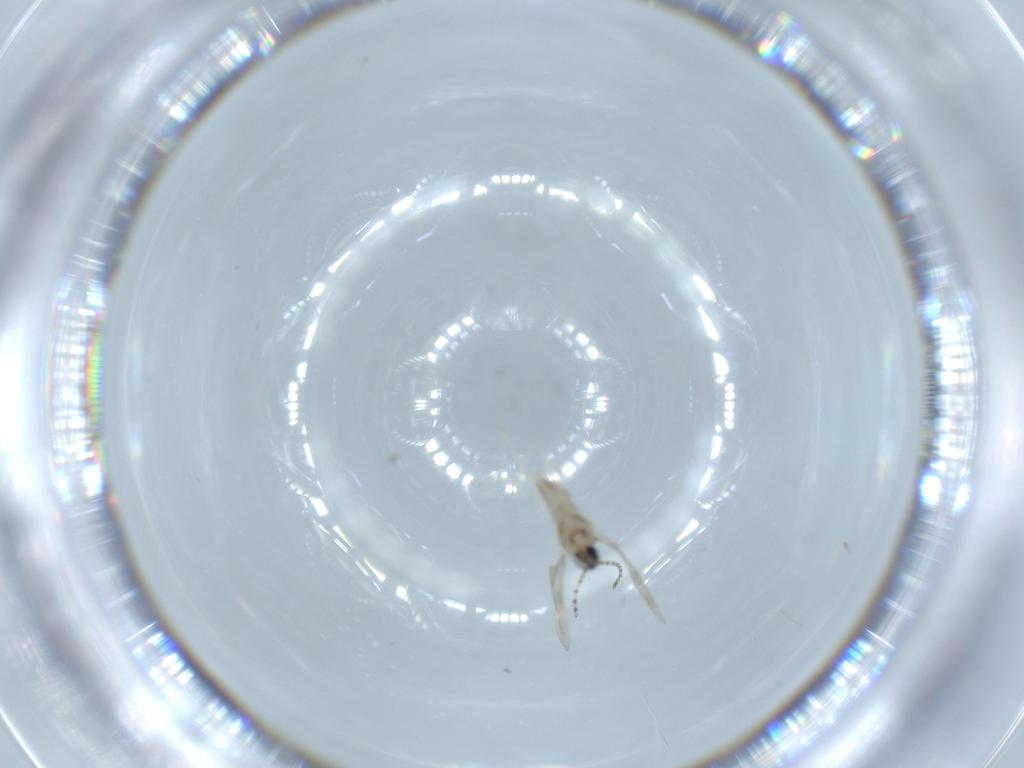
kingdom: Animalia
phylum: Arthropoda
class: Insecta
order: Diptera
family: Cecidomyiidae
